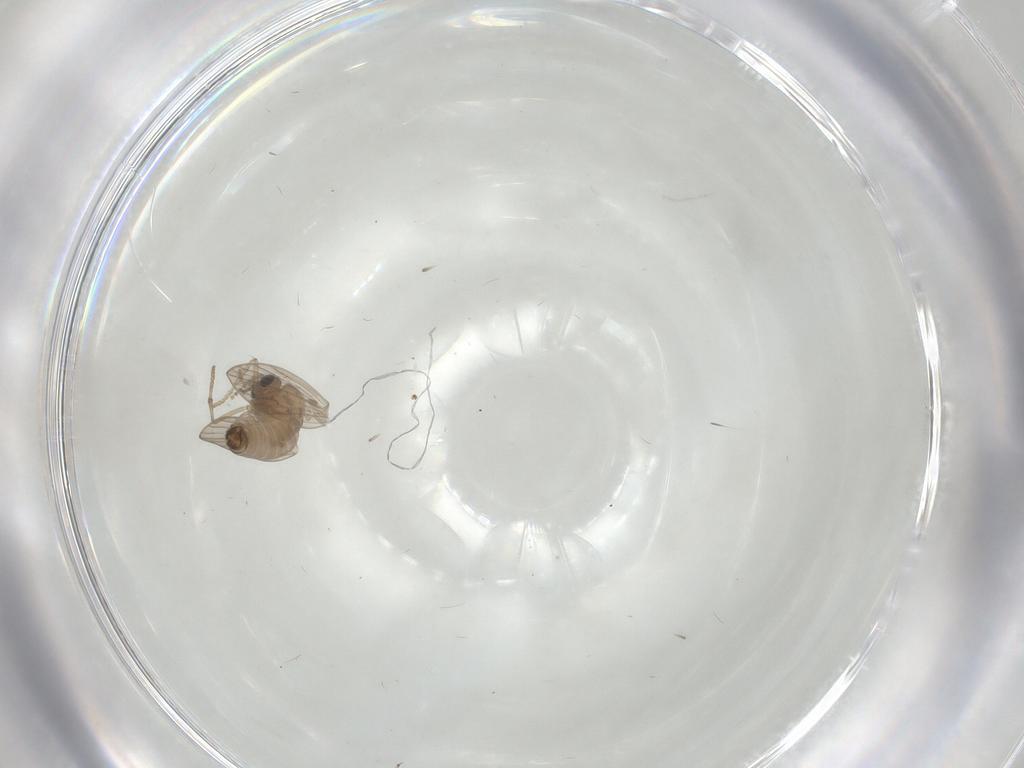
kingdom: Animalia
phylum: Arthropoda
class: Insecta
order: Diptera
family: Psychodidae
